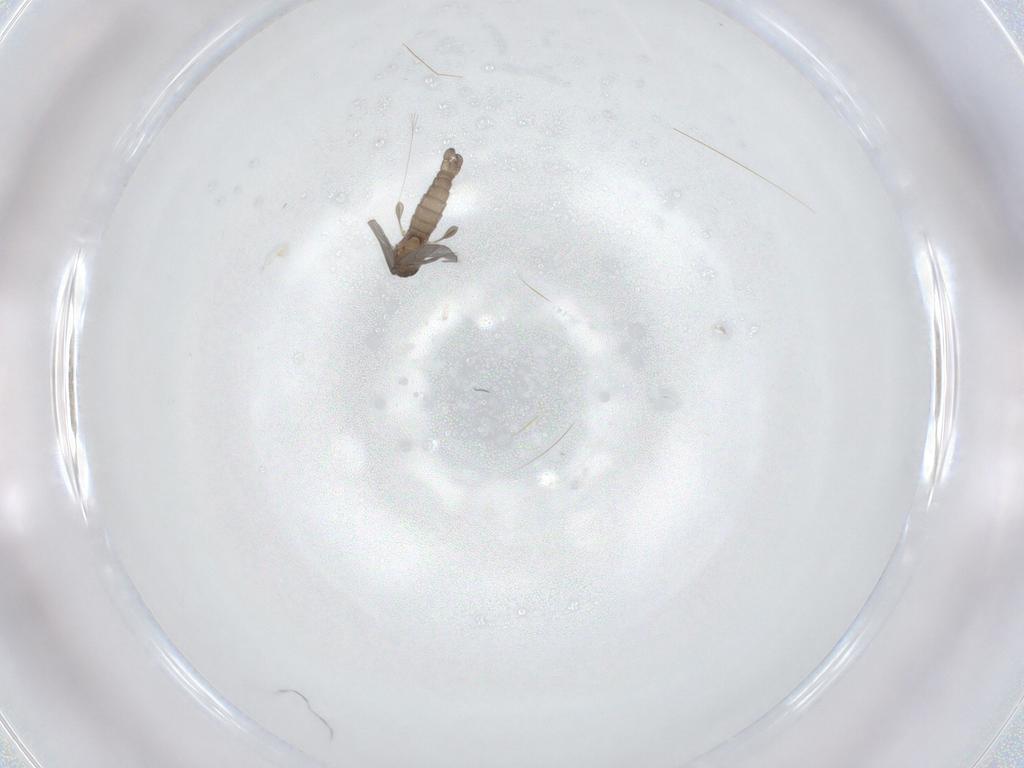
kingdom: Animalia
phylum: Arthropoda
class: Insecta
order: Diptera
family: Sciaridae
